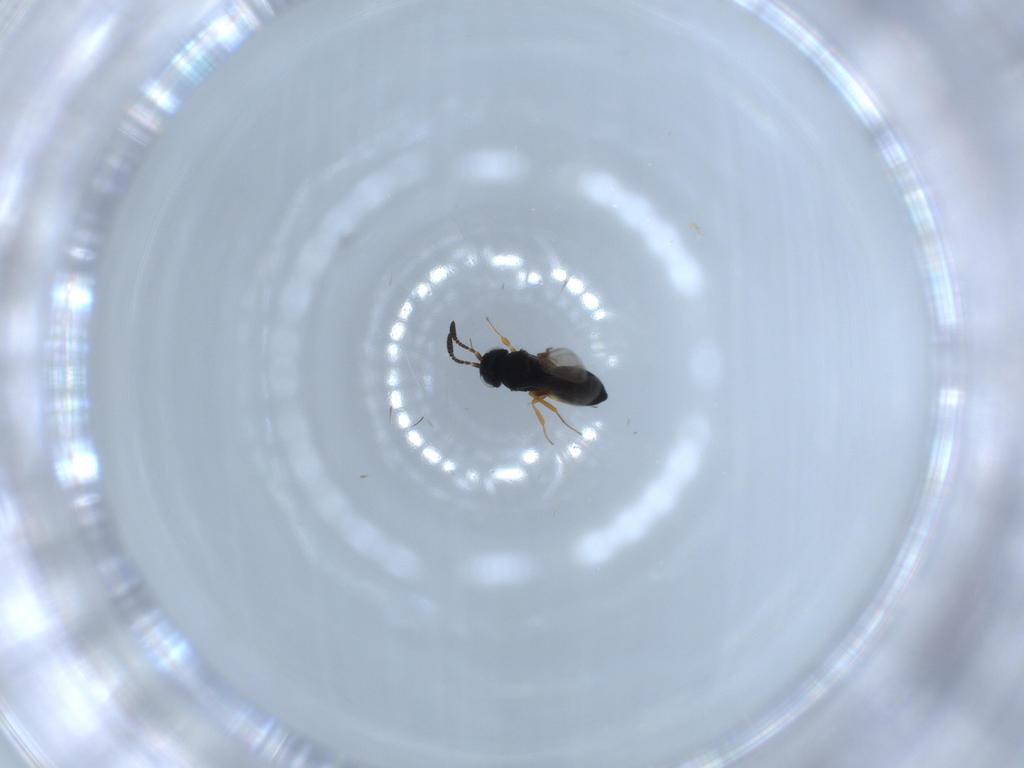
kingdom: Animalia
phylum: Arthropoda
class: Insecta
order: Hymenoptera
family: Scelionidae
